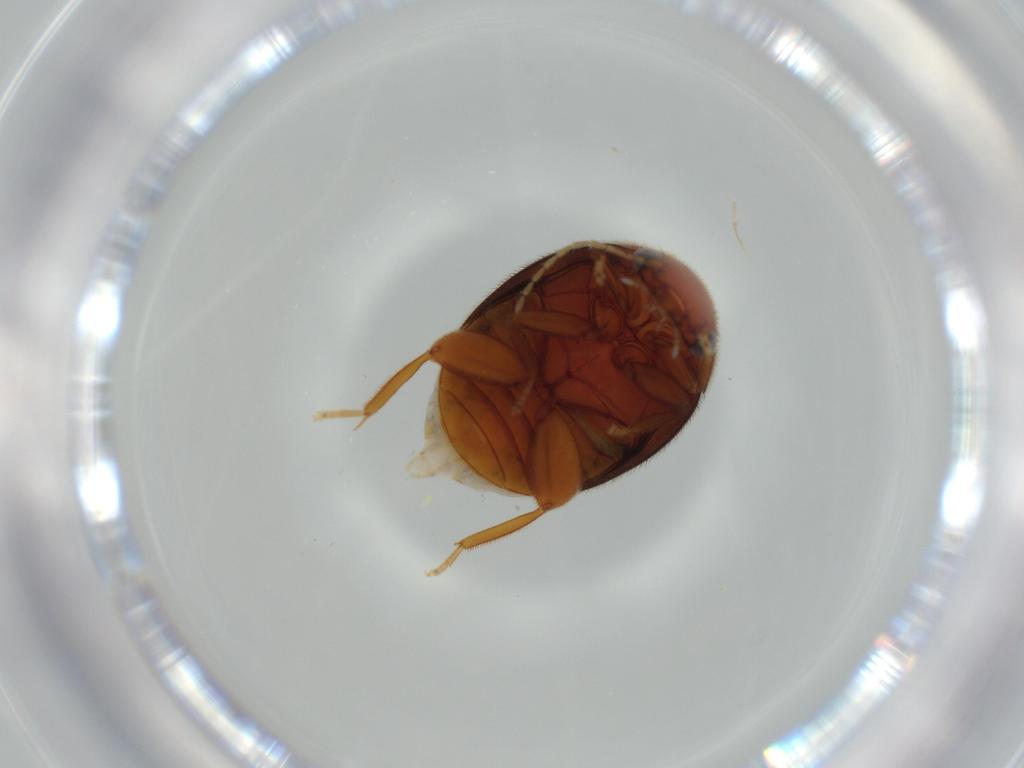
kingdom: Animalia
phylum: Arthropoda
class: Insecta
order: Coleoptera
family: Scirtidae
